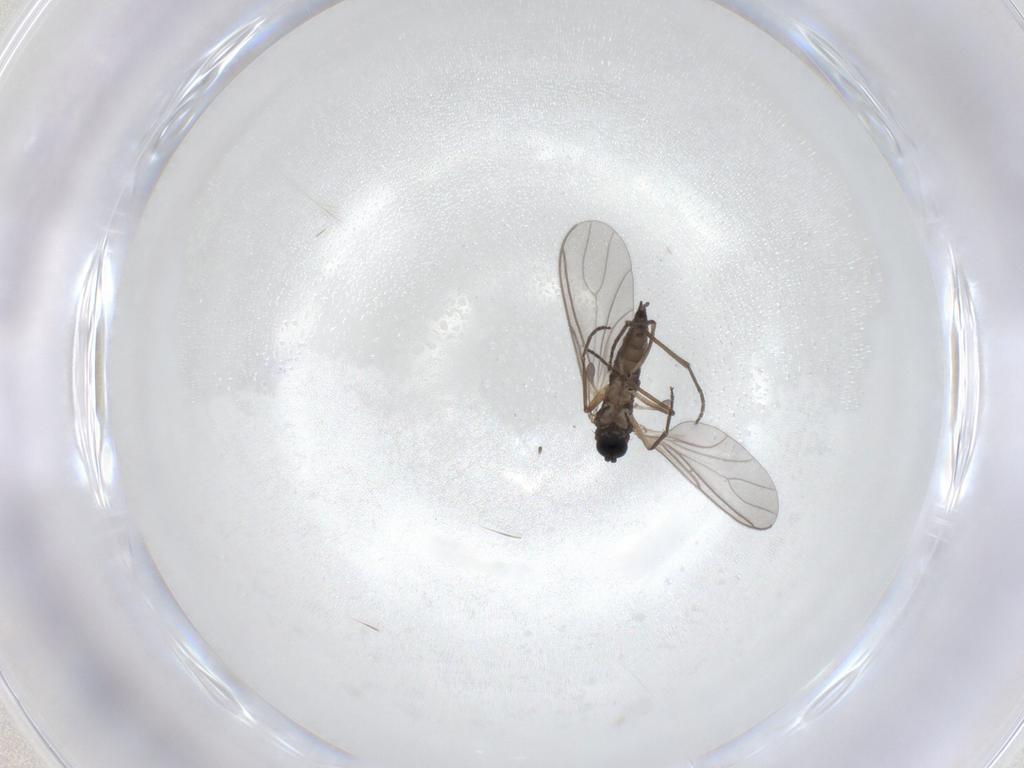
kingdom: Animalia
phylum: Arthropoda
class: Insecta
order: Diptera
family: Sciaridae
